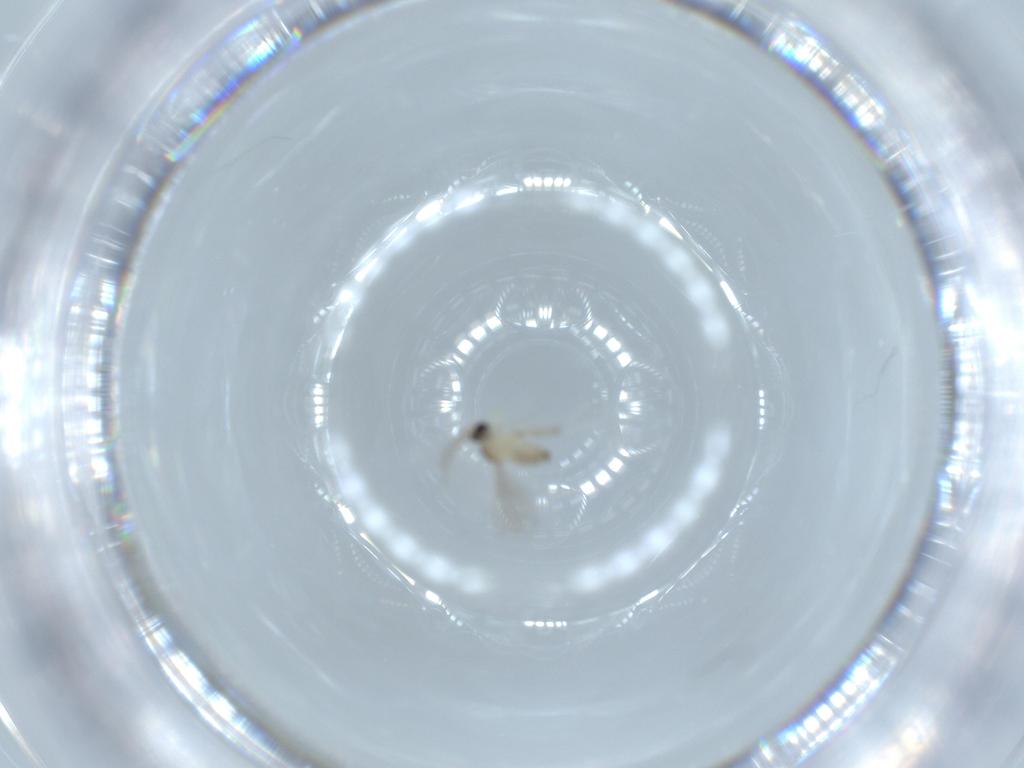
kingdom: Animalia
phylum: Arthropoda
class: Insecta
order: Diptera
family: Cecidomyiidae
